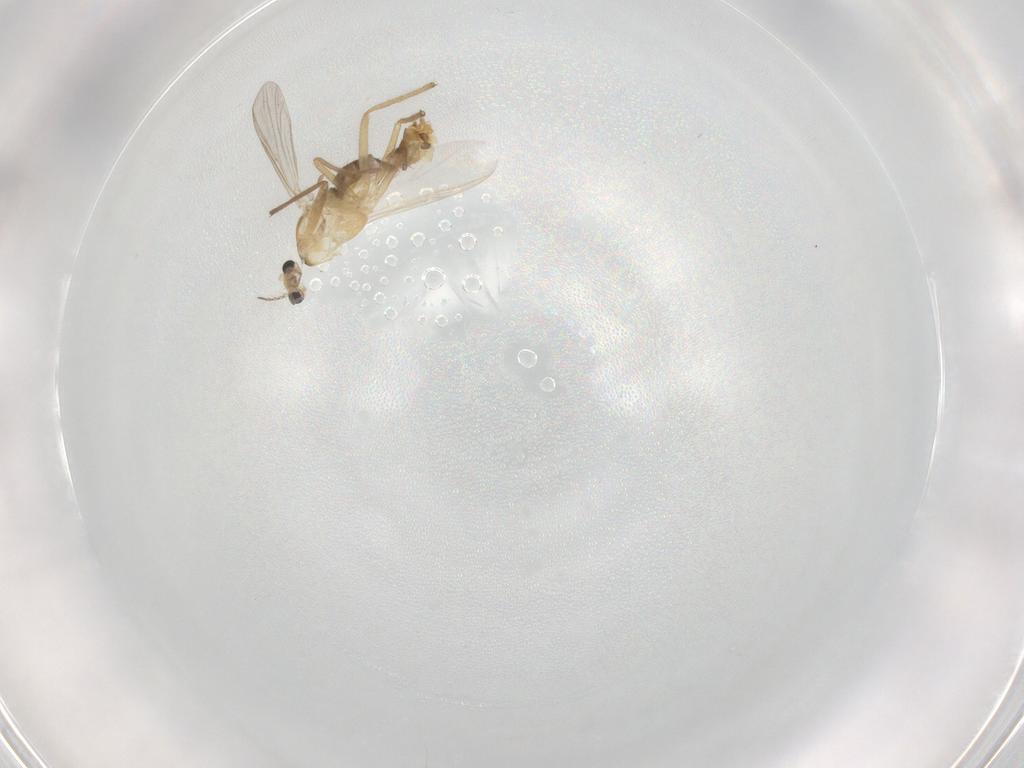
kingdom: Animalia
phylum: Arthropoda
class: Insecta
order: Diptera
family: Chironomidae
